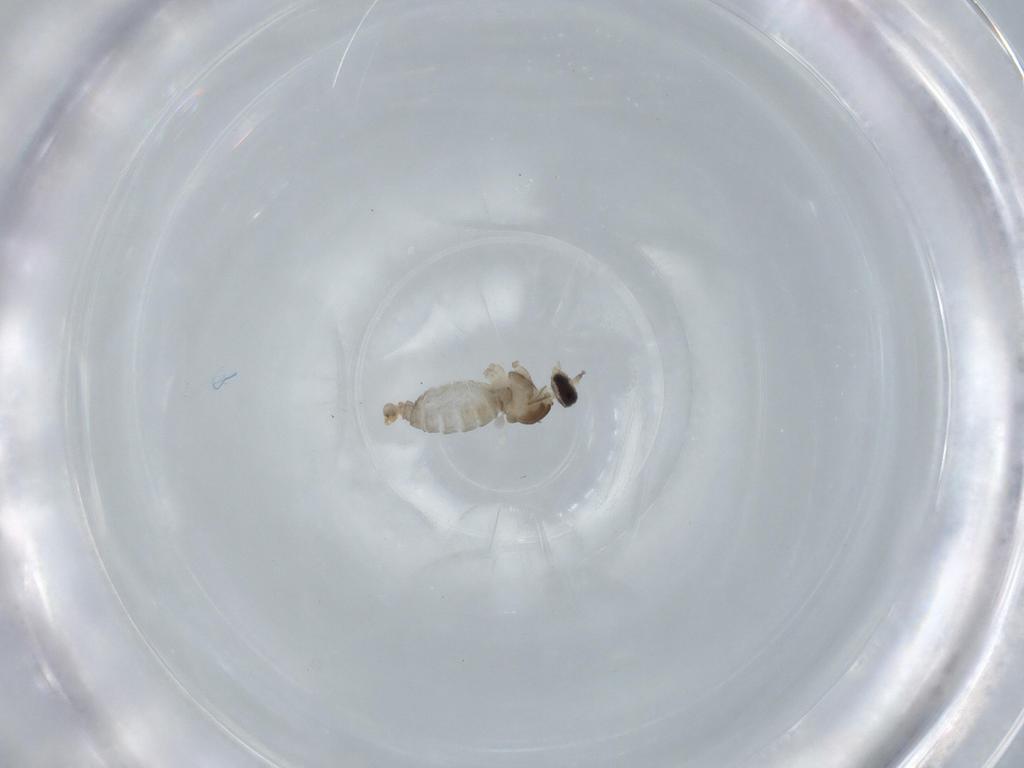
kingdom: Animalia
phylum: Arthropoda
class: Insecta
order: Diptera
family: Cecidomyiidae
